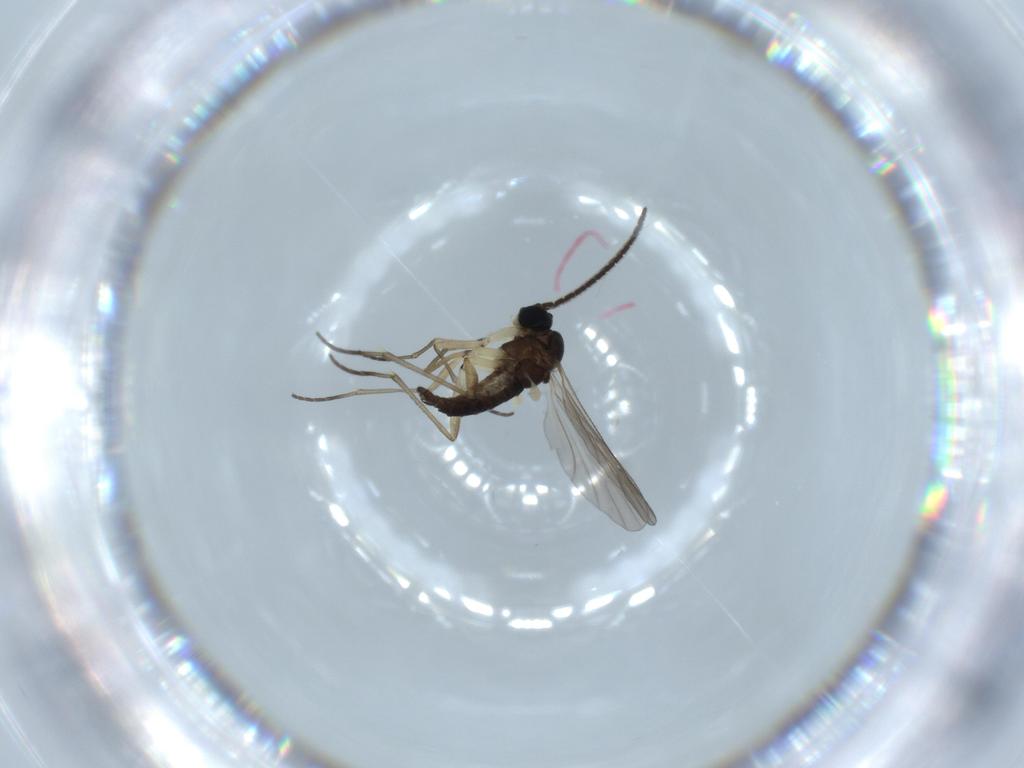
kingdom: Animalia
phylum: Arthropoda
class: Insecta
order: Diptera
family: Sciaridae
